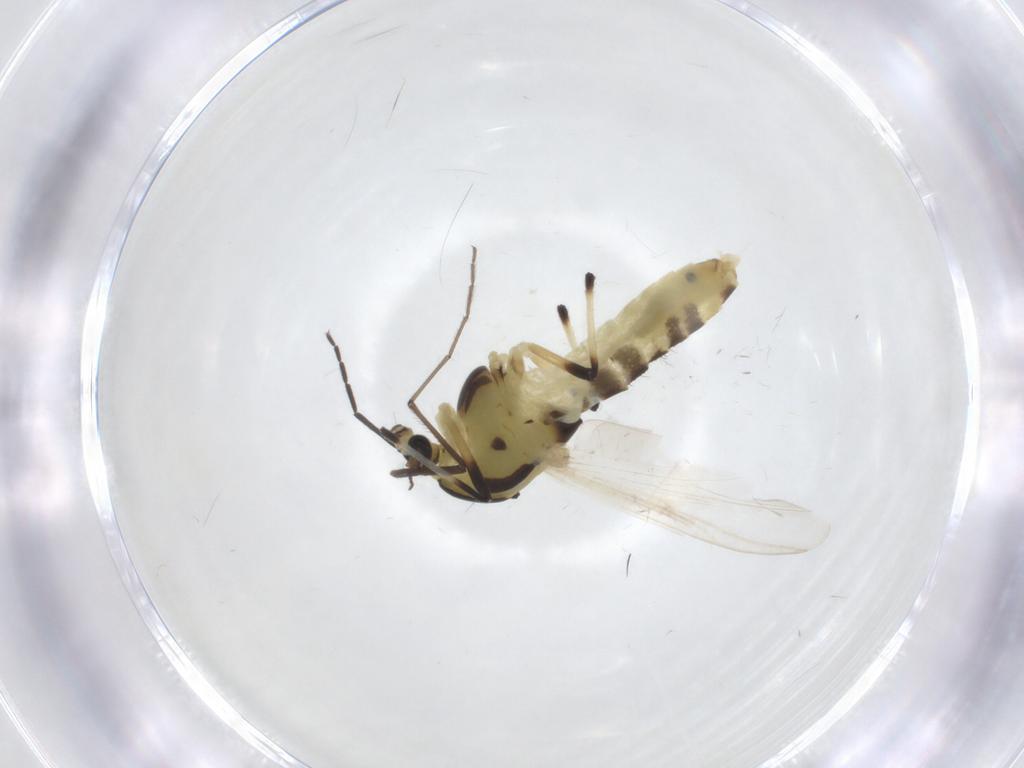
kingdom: Animalia
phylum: Arthropoda
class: Insecta
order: Diptera
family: Chironomidae
